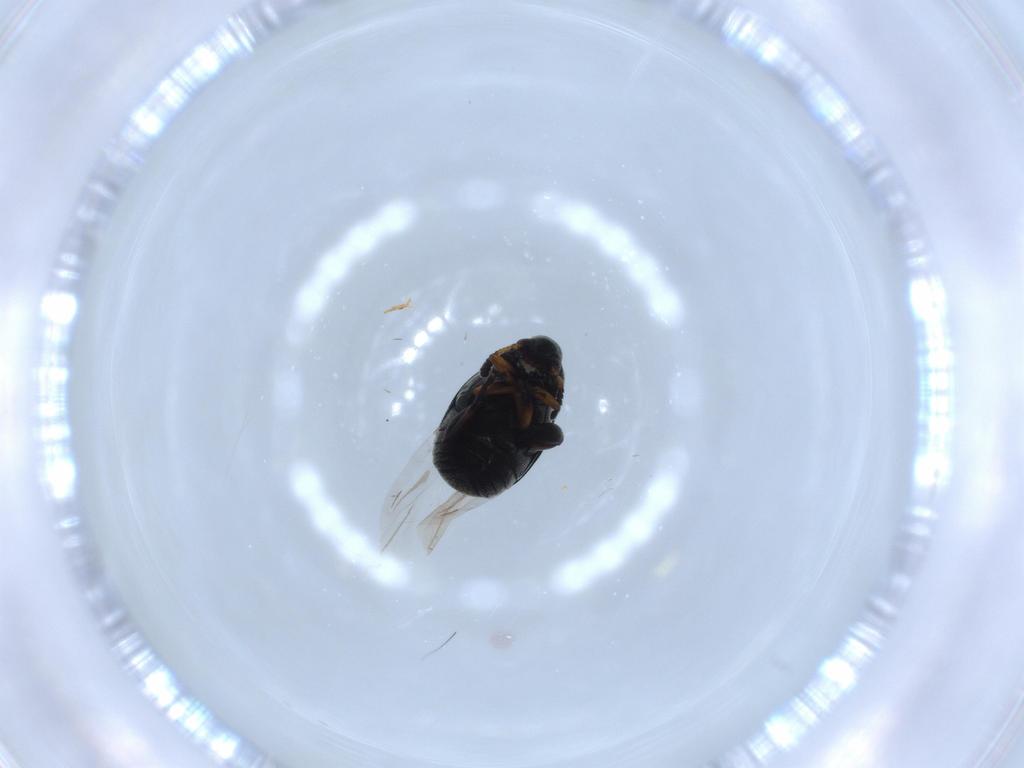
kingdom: Animalia
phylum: Arthropoda
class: Insecta
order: Coleoptera
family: Chrysomelidae
